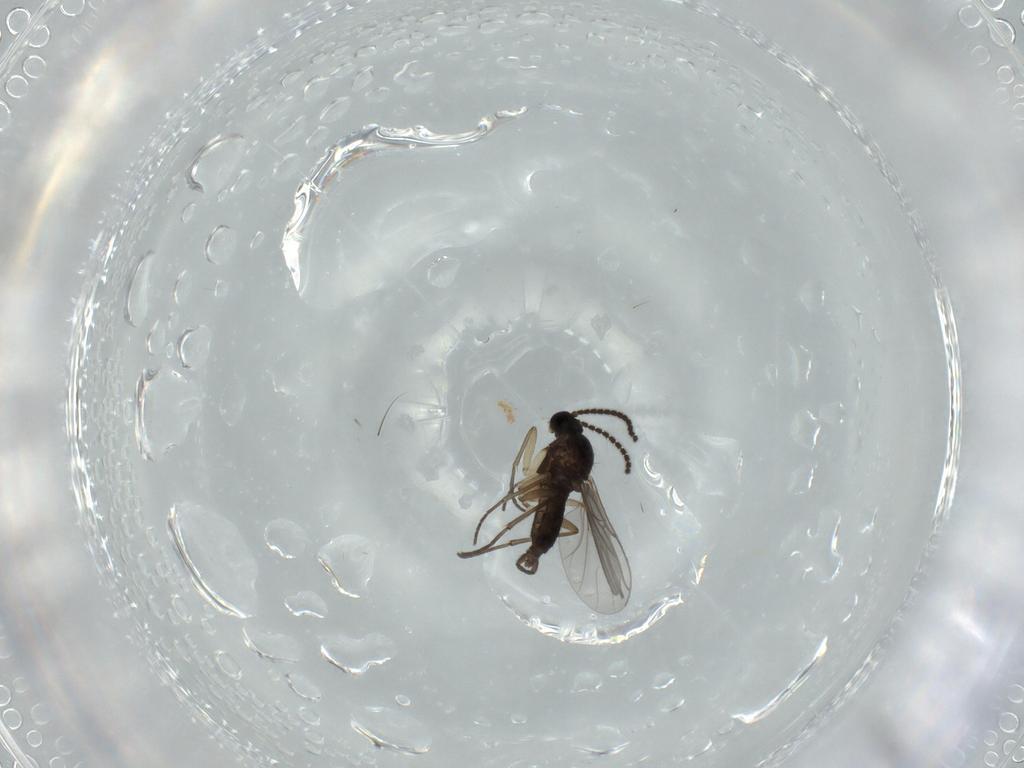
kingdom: Animalia
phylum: Arthropoda
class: Insecta
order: Diptera
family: Sciaridae
